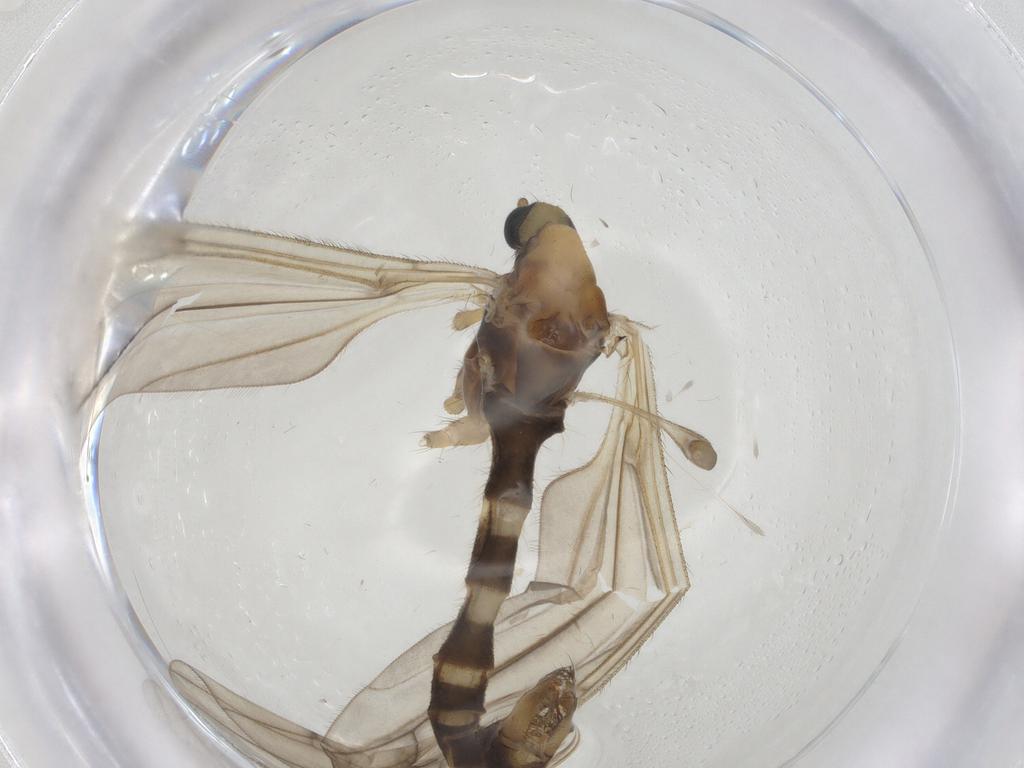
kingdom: Animalia
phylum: Arthropoda
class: Insecta
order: Diptera
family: Limoniidae
